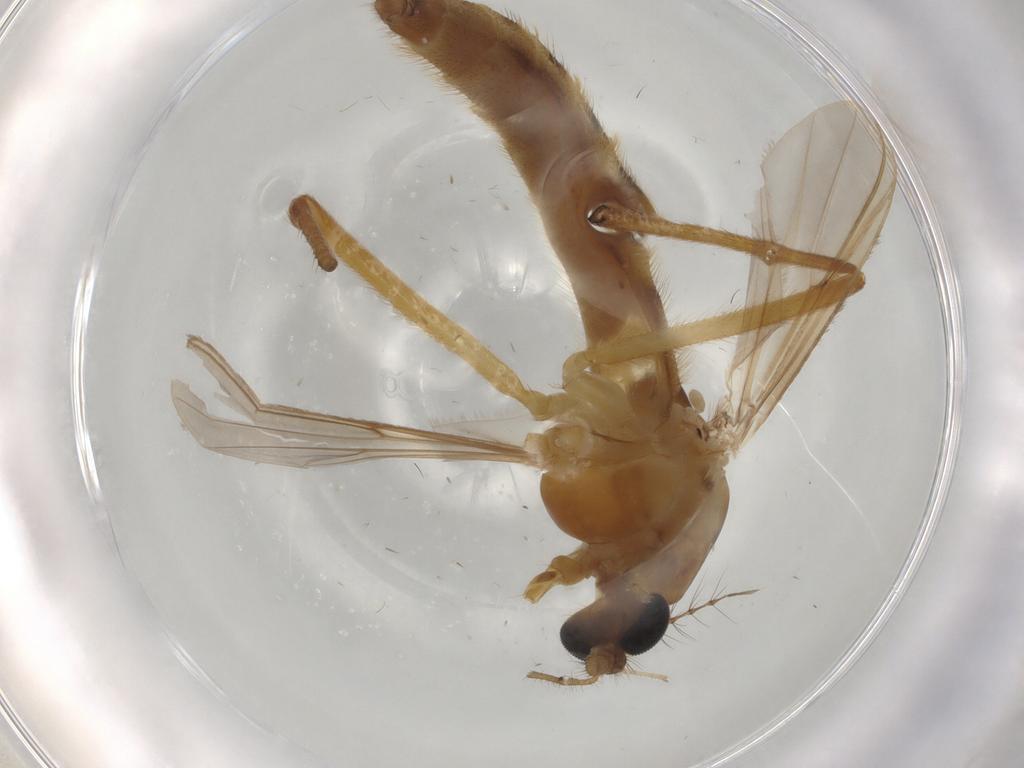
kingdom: Animalia
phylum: Arthropoda
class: Insecta
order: Diptera
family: Chironomidae
